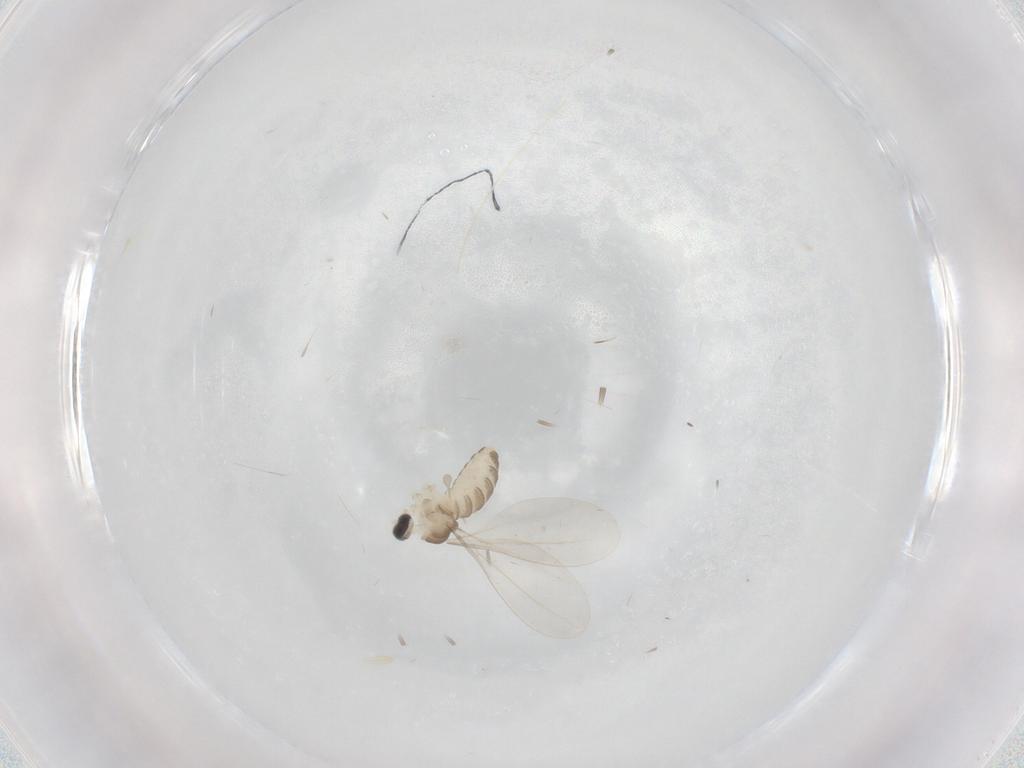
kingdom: Animalia
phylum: Arthropoda
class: Insecta
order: Diptera
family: Cecidomyiidae
